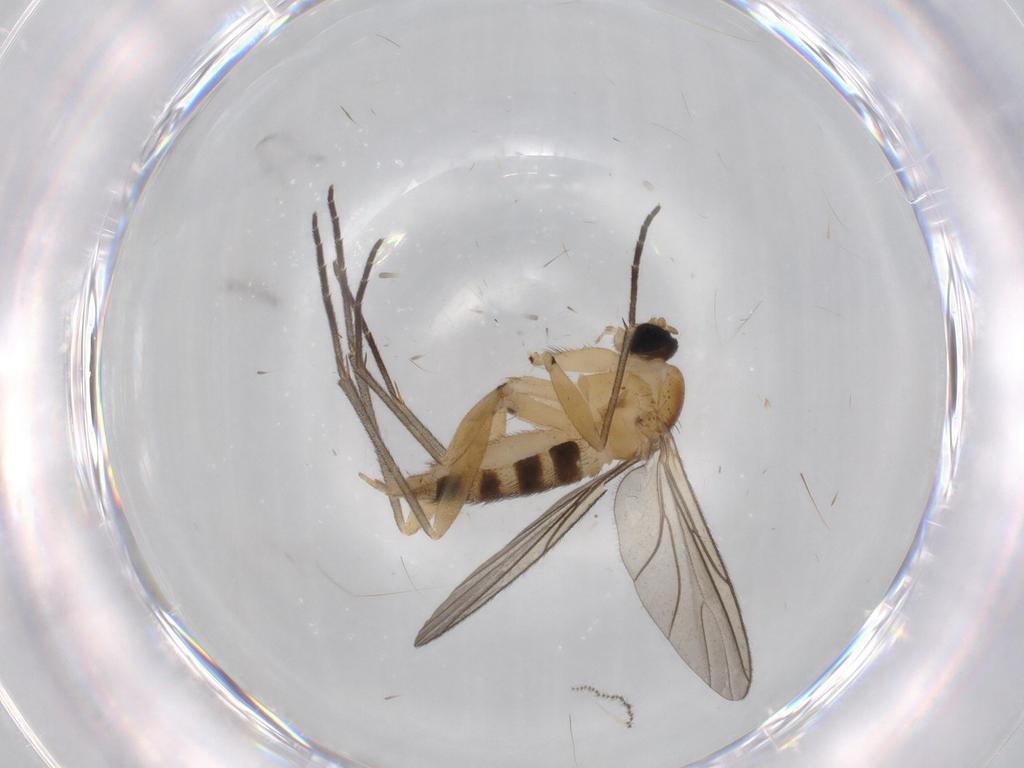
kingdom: Animalia
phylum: Arthropoda
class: Insecta
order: Diptera
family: Sciaridae
